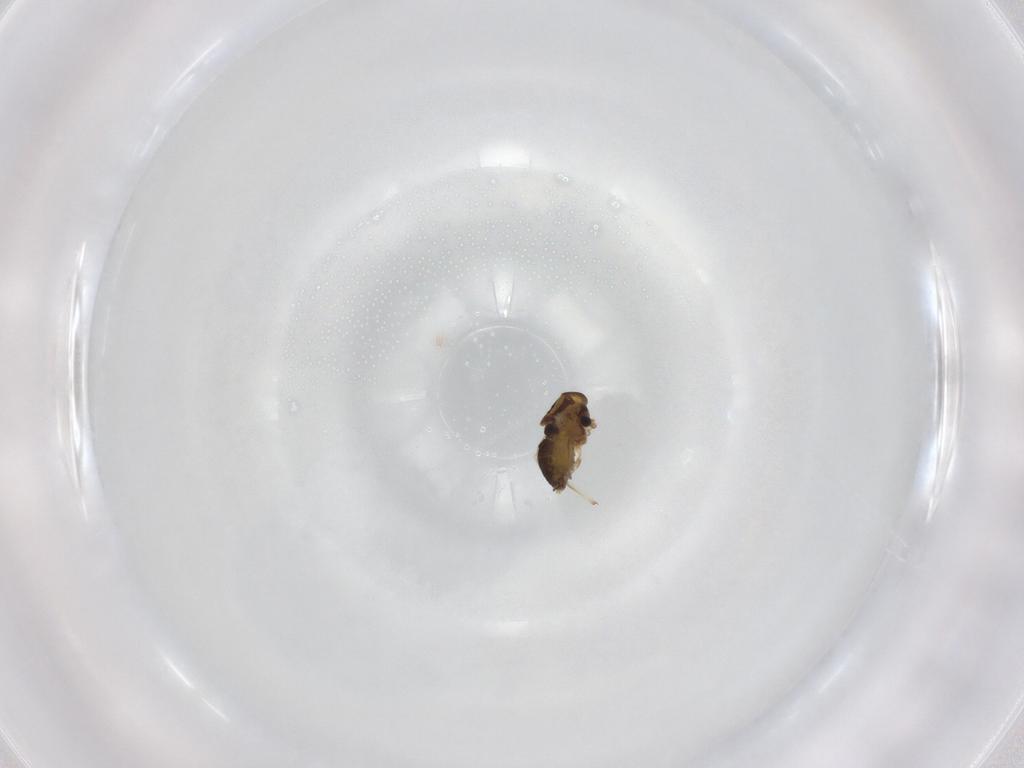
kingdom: Animalia
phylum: Arthropoda
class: Insecta
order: Diptera
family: Chironomidae
